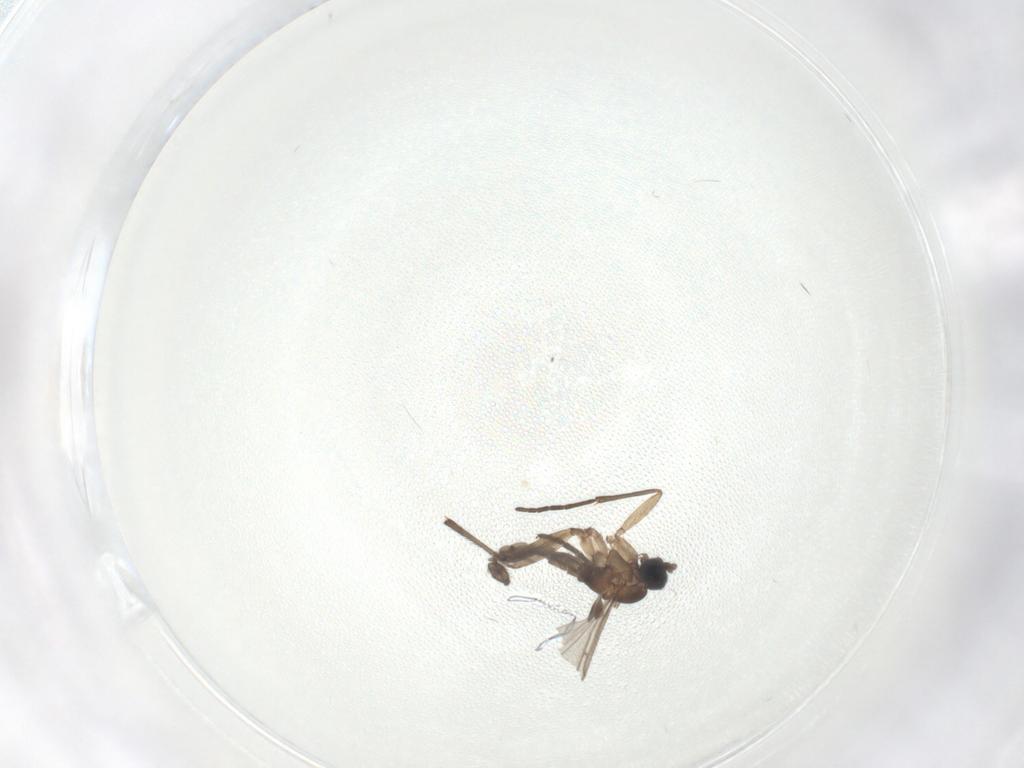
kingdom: Animalia
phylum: Arthropoda
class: Insecta
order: Diptera
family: Sciaridae
